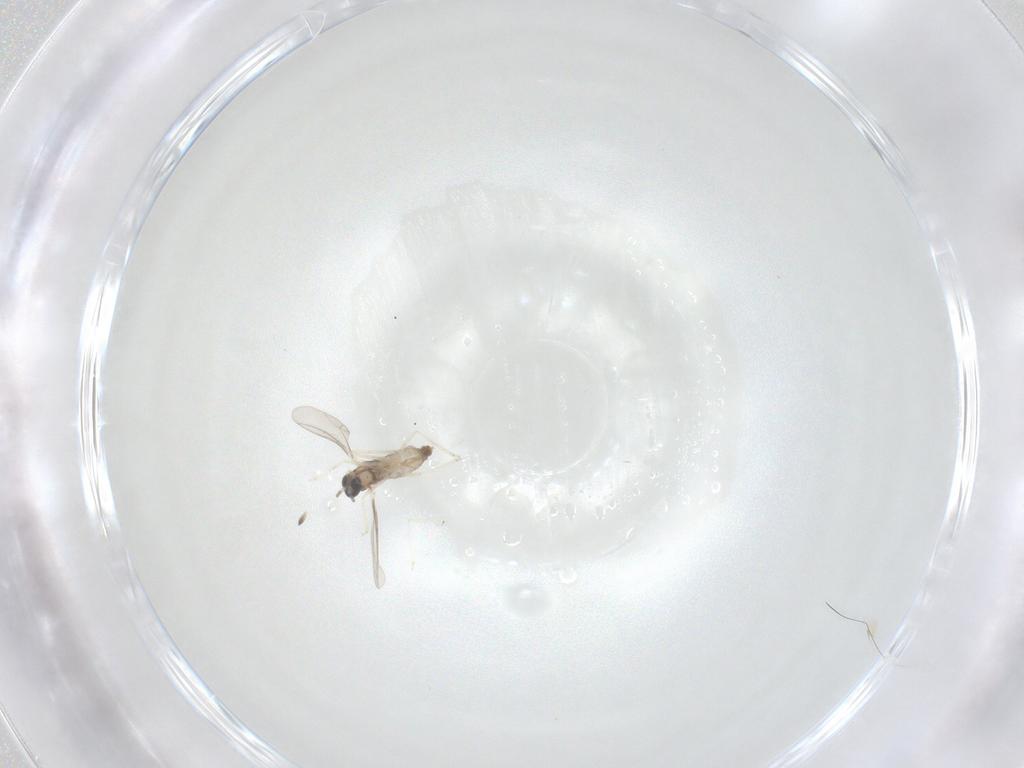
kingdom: Animalia
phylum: Arthropoda
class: Insecta
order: Diptera
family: Cecidomyiidae
